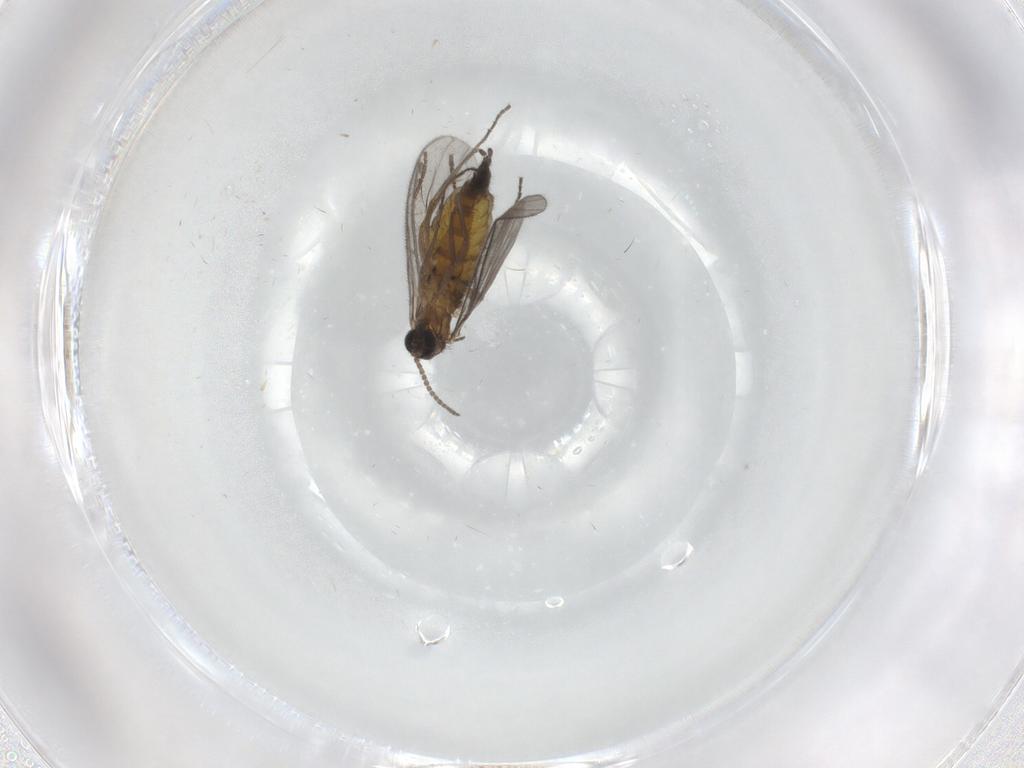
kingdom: Animalia
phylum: Arthropoda
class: Insecta
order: Diptera
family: Sciaridae
